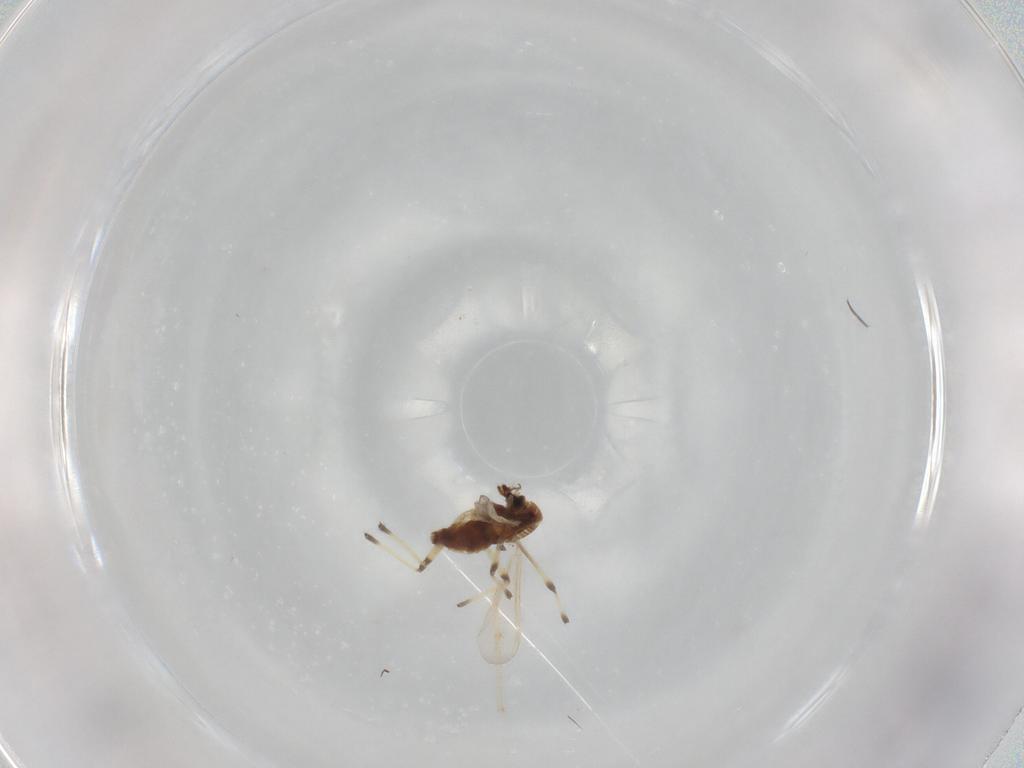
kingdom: Animalia
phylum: Arthropoda
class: Insecta
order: Diptera
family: Chironomidae
